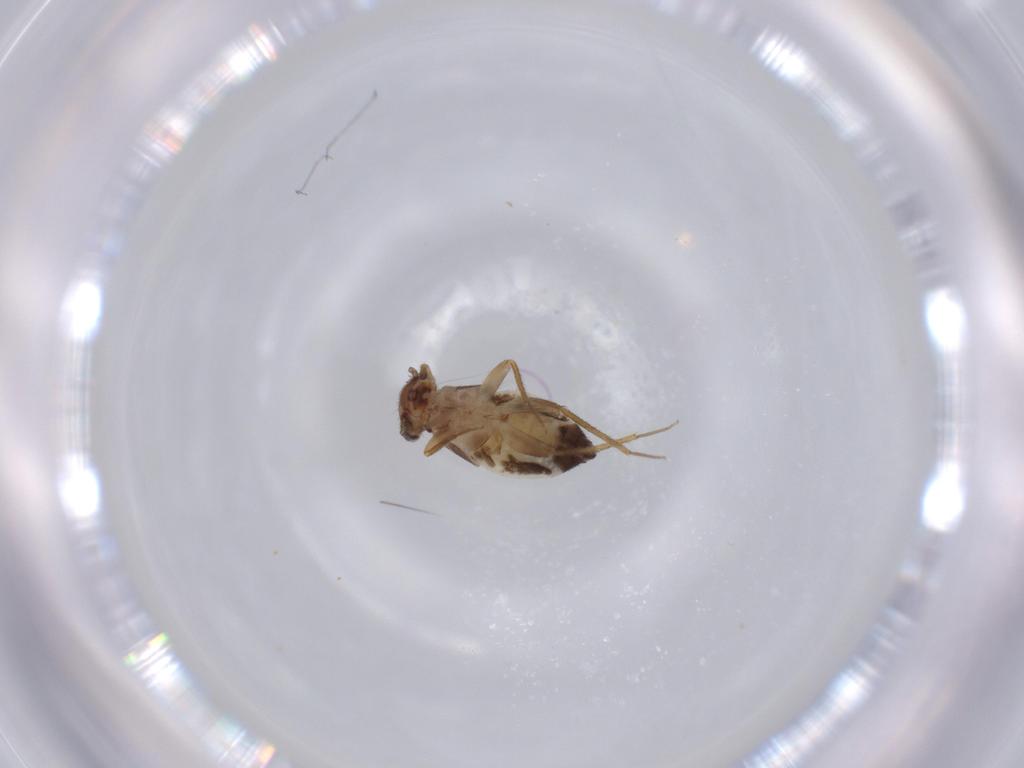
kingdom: Animalia
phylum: Arthropoda
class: Insecta
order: Psocodea
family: Lepidopsocidae
